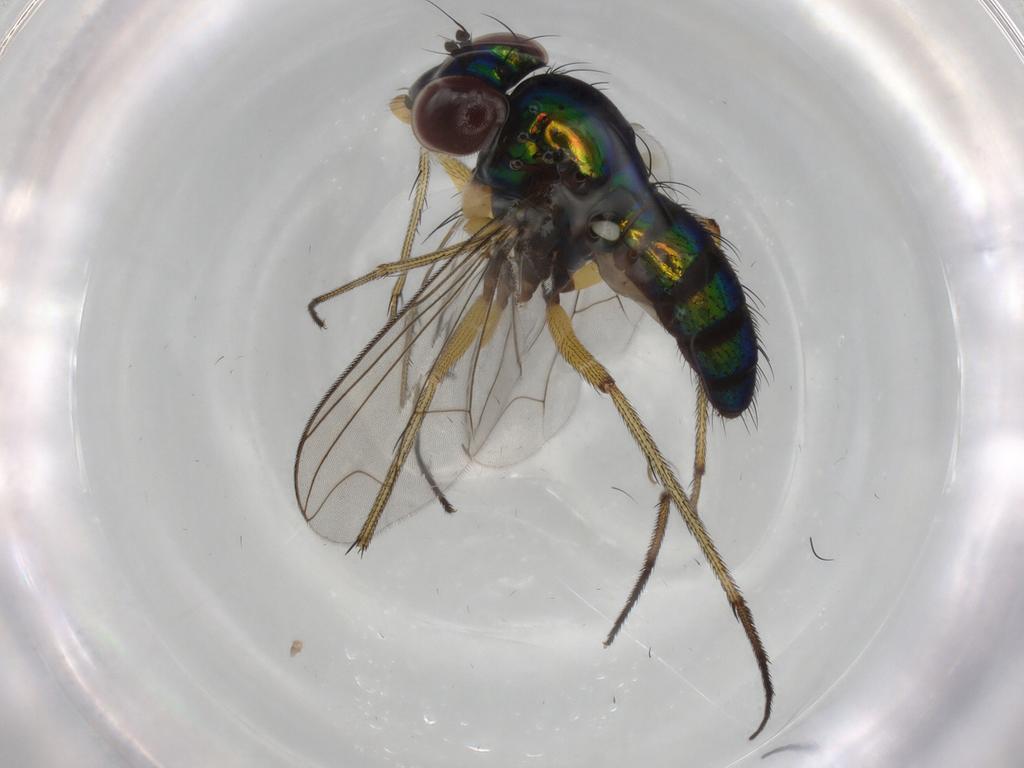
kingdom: Animalia
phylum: Arthropoda
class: Insecta
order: Diptera
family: Dolichopodidae
